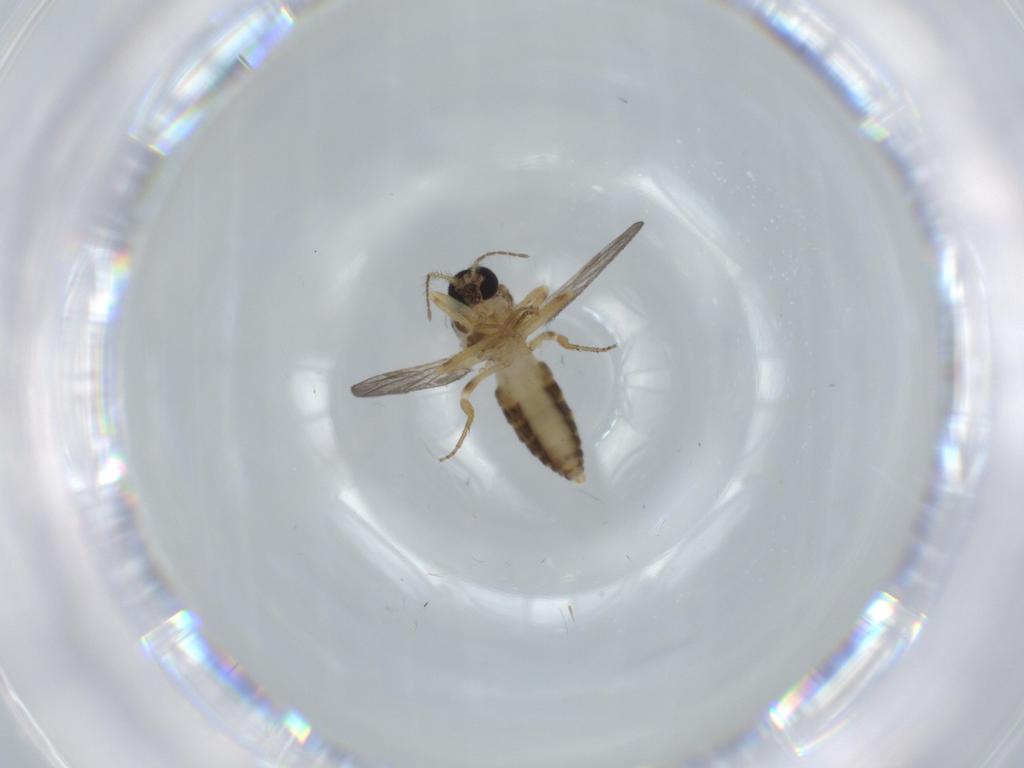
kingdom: Animalia
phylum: Arthropoda
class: Insecta
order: Diptera
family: Ceratopogonidae
